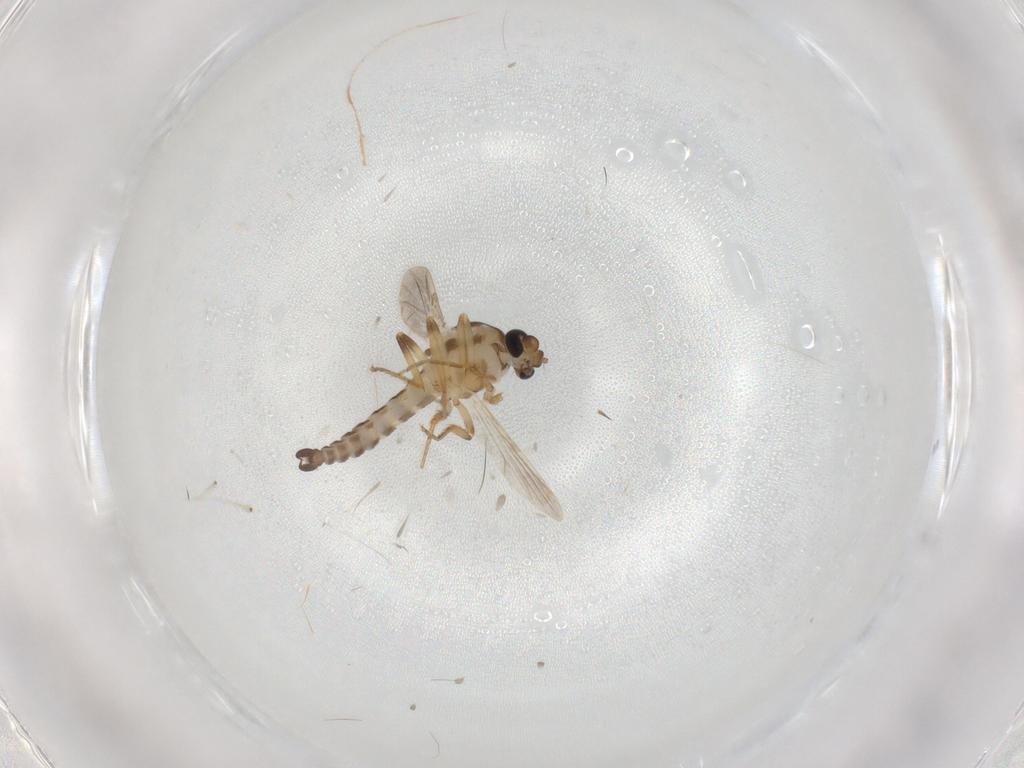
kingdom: Animalia
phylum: Arthropoda
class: Insecta
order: Diptera
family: Ceratopogonidae
